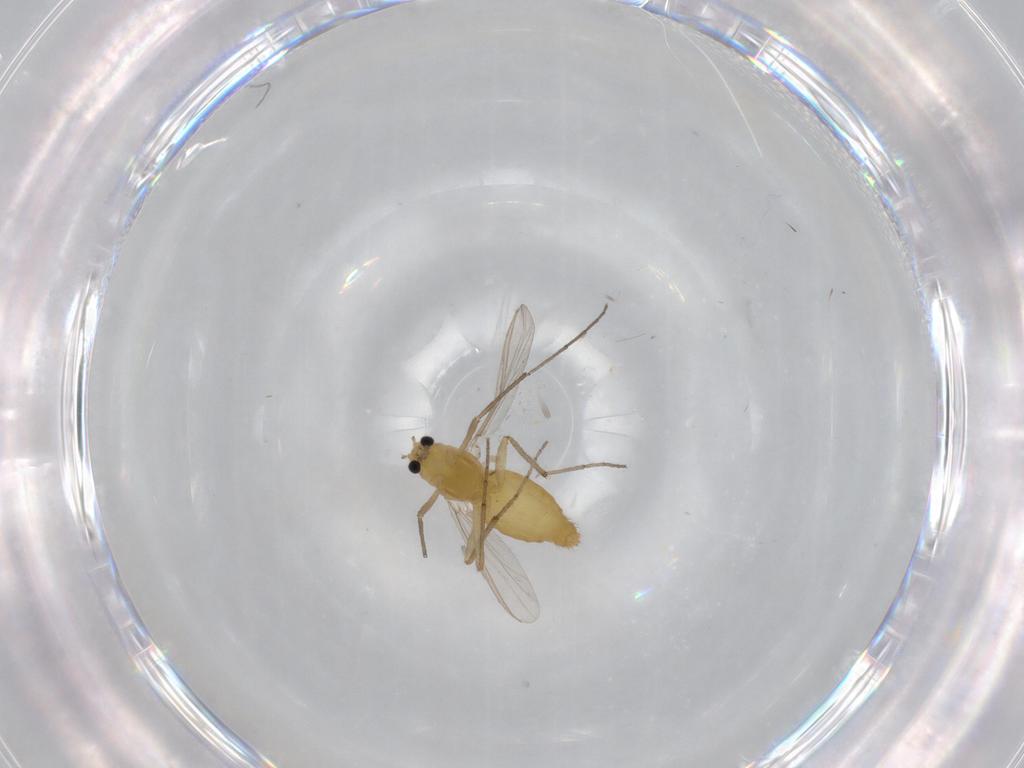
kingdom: Animalia
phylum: Arthropoda
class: Insecta
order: Diptera
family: Chironomidae
